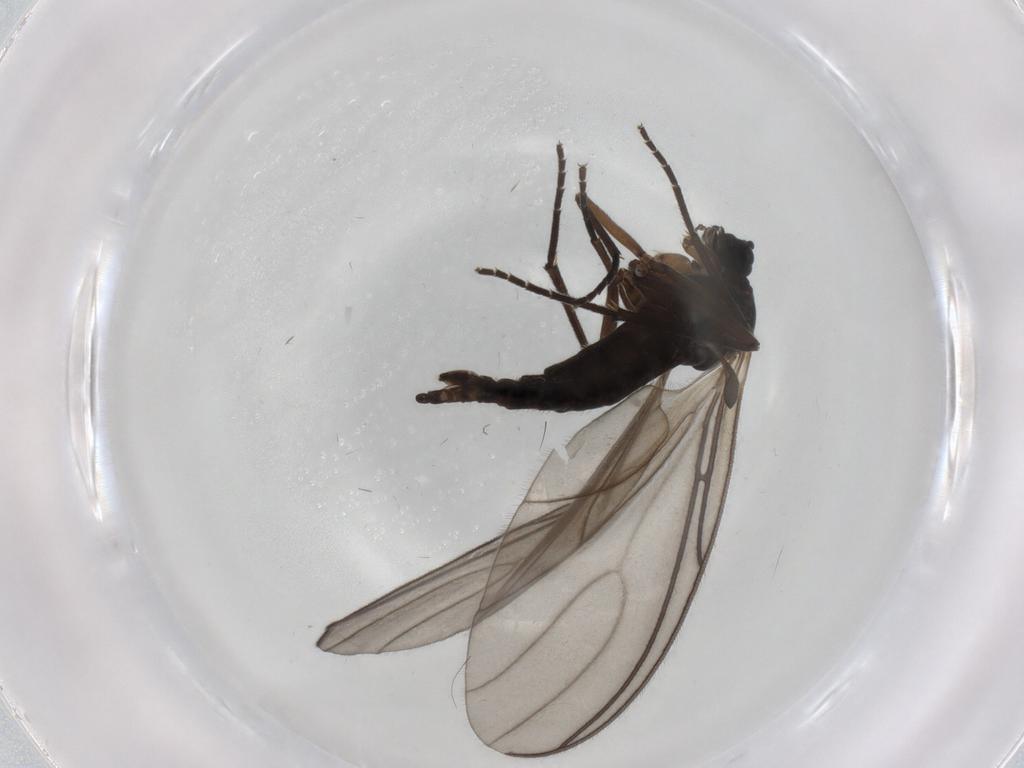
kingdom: Animalia
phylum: Arthropoda
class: Insecta
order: Diptera
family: Sciaridae
